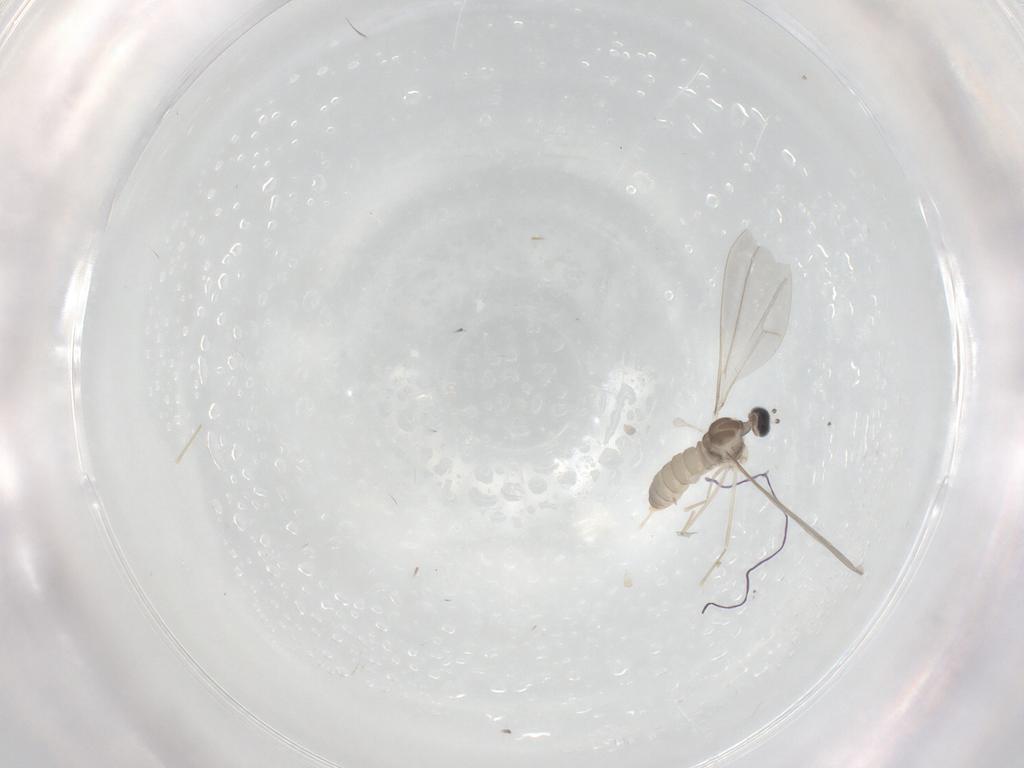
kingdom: Animalia
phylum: Arthropoda
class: Insecta
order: Diptera
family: Cecidomyiidae
